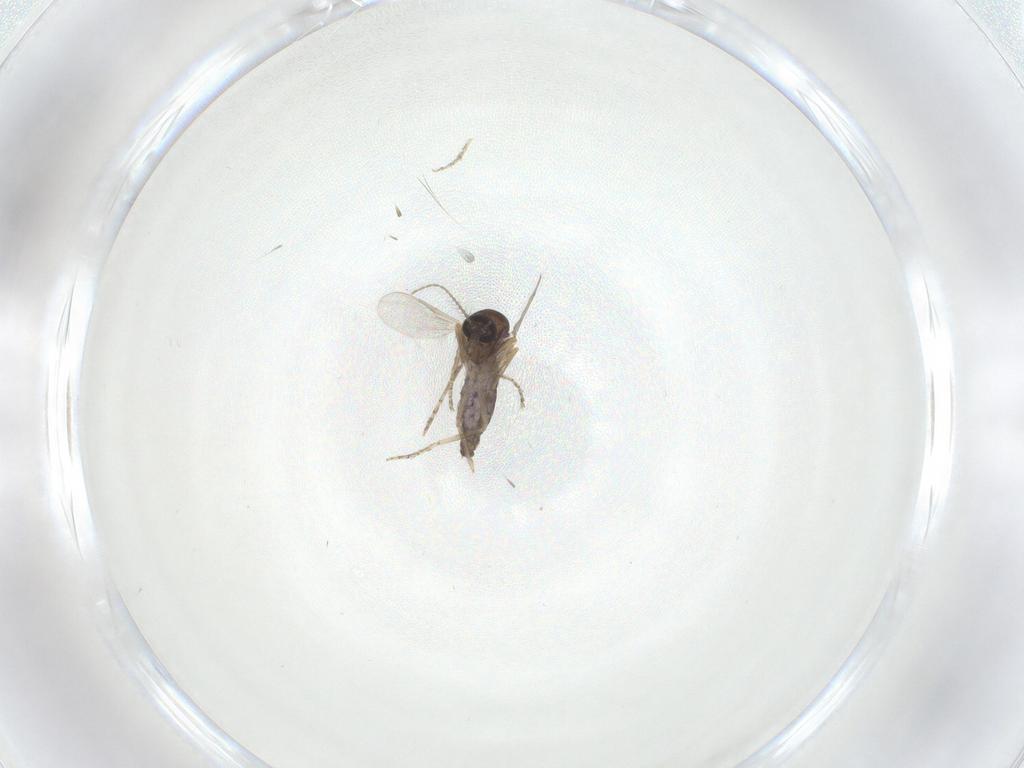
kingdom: Animalia
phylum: Arthropoda
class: Insecta
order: Diptera
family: Ceratopogonidae
